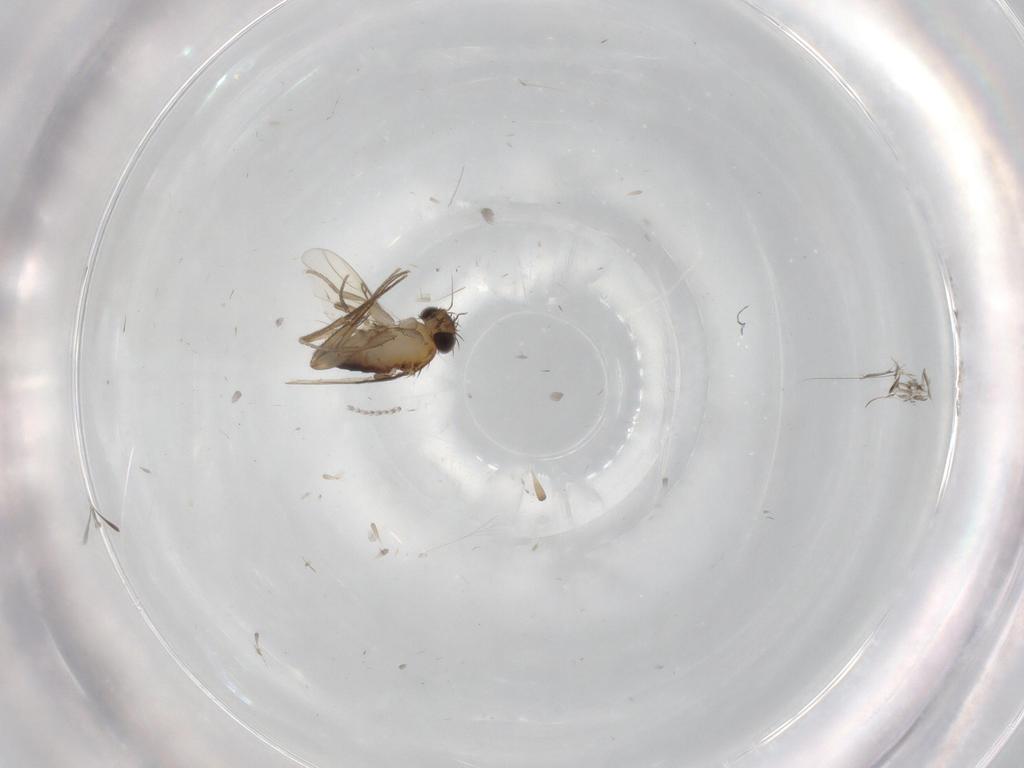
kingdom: Animalia
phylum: Arthropoda
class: Insecta
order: Diptera
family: Phoridae
